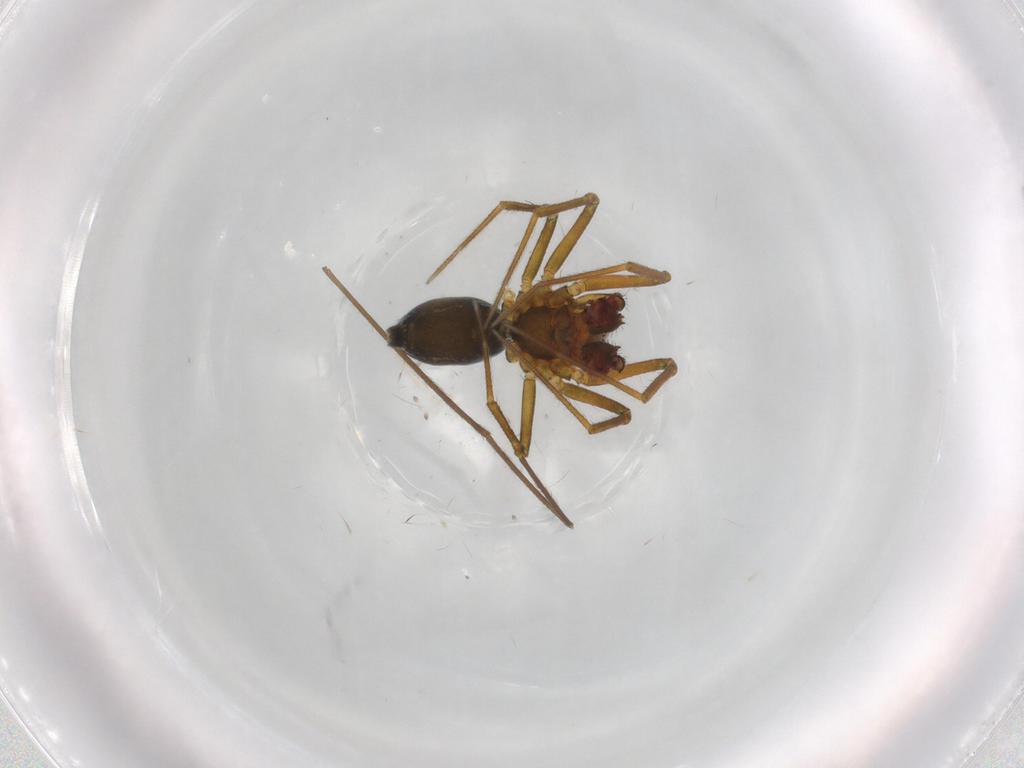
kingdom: Animalia
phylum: Arthropoda
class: Arachnida
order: Araneae
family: Linyphiidae
